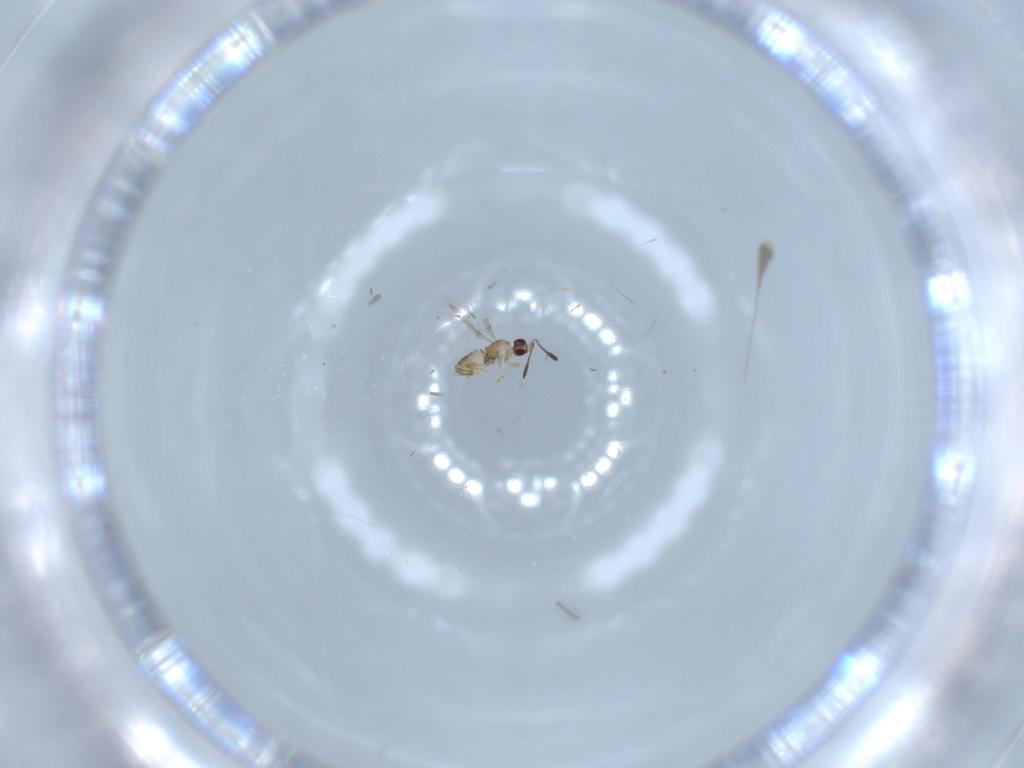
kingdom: Animalia
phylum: Arthropoda
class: Insecta
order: Hymenoptera
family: Mymaridae
